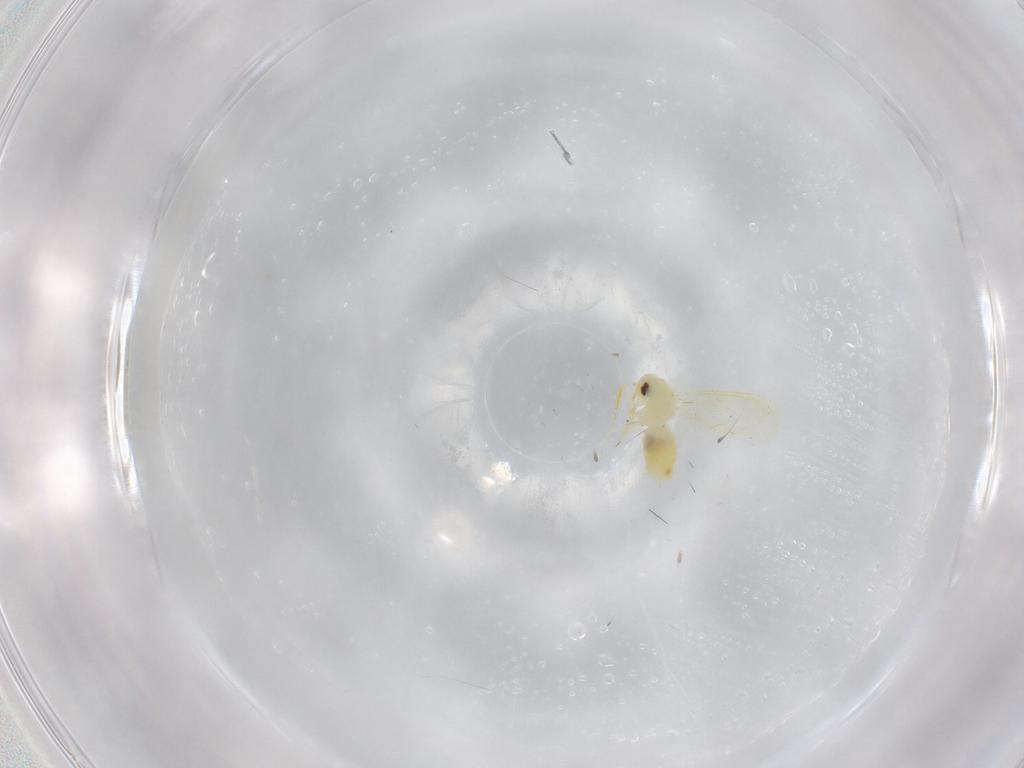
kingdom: Animalia
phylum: Arthropoda
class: Insecta
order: Hemiptera
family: Aleyrodidae
